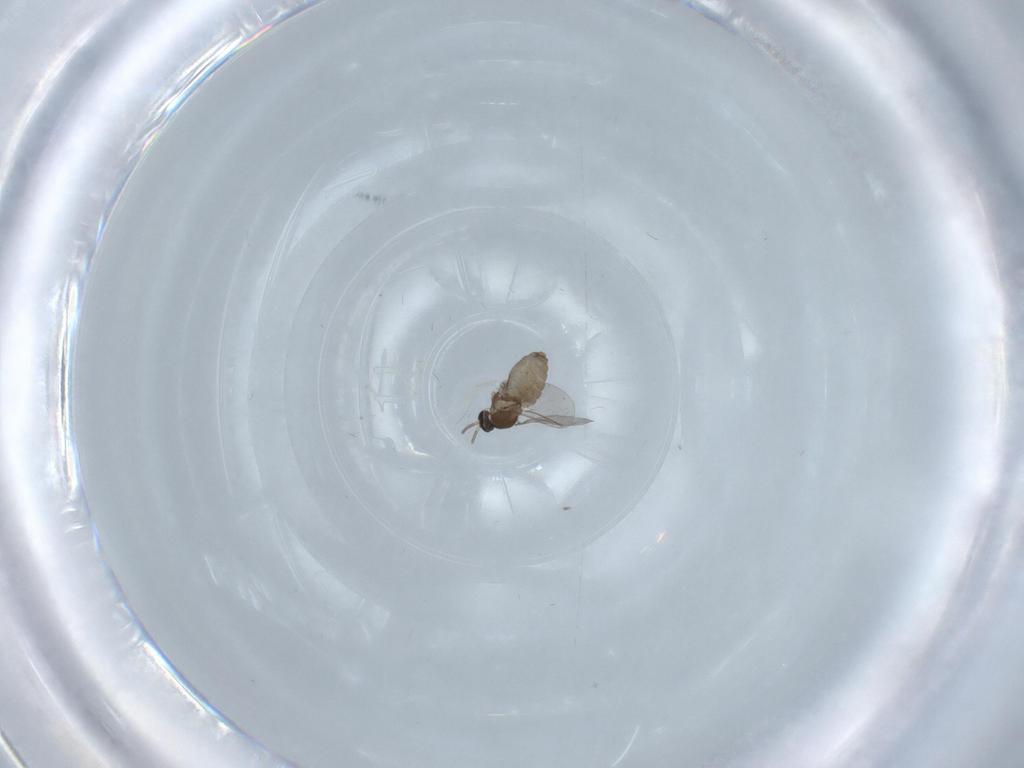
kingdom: Animalia
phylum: Arthropoda
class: Insecta
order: Diptera
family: Cecidomyiidae
